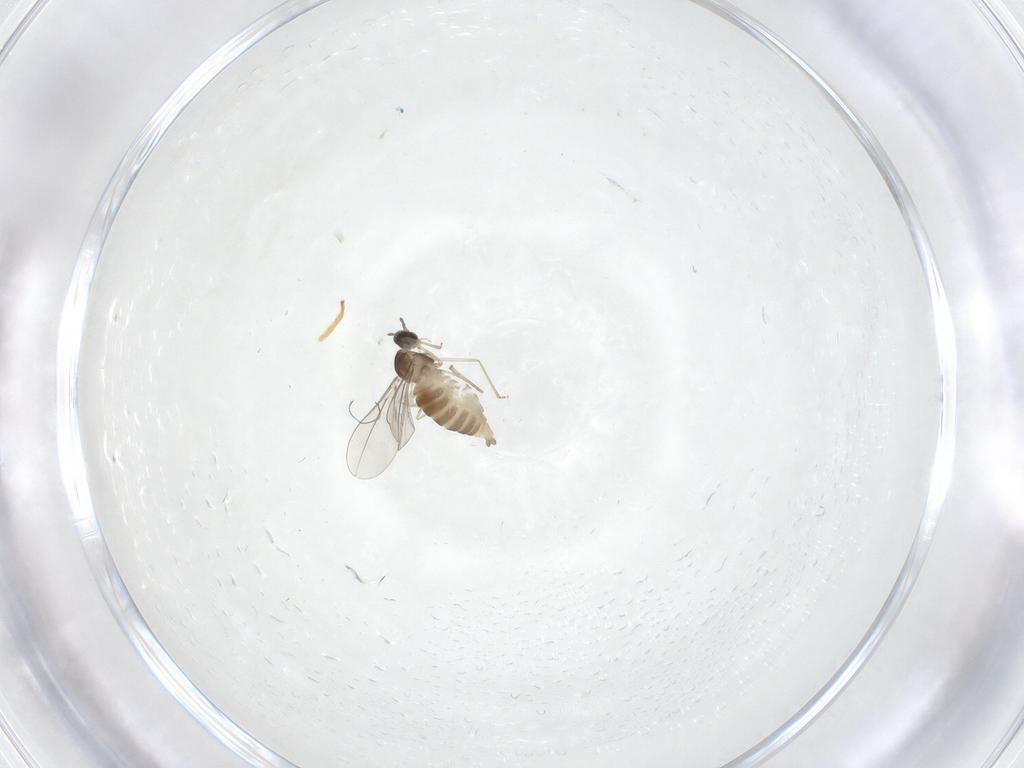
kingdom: Animalia
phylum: Arthropoda
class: Insecta
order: Diptera
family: Cecidomyiidae
